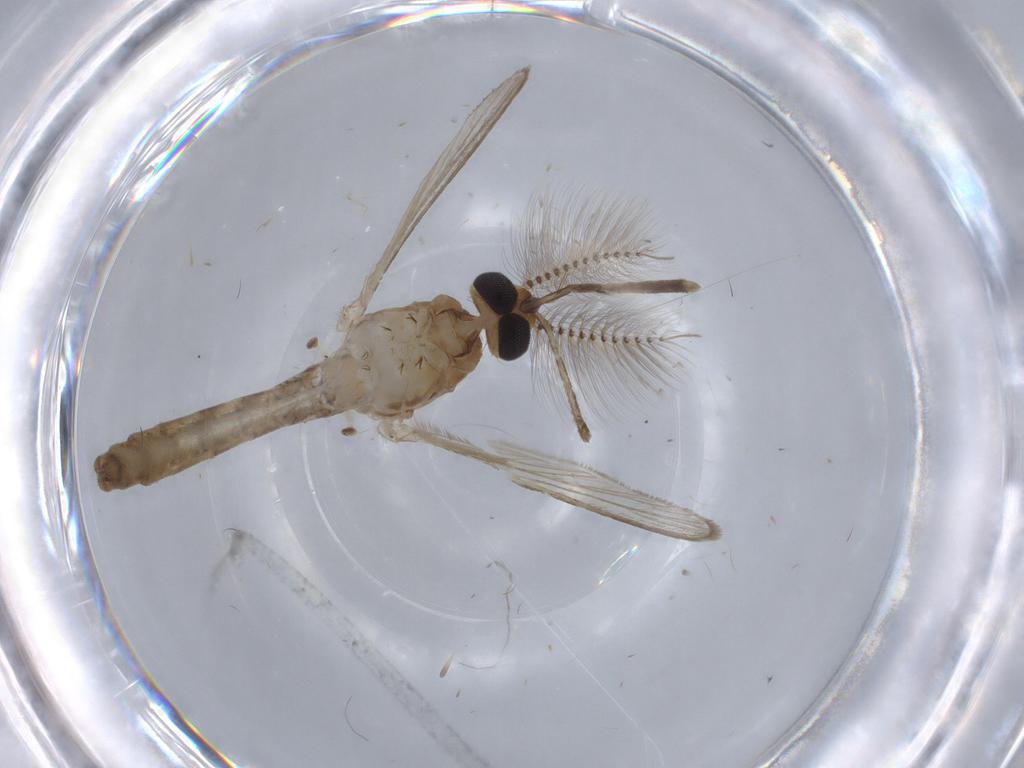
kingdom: Animalia
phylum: Arthropoda
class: Insecta
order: Diptera
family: Dolichopodidae
